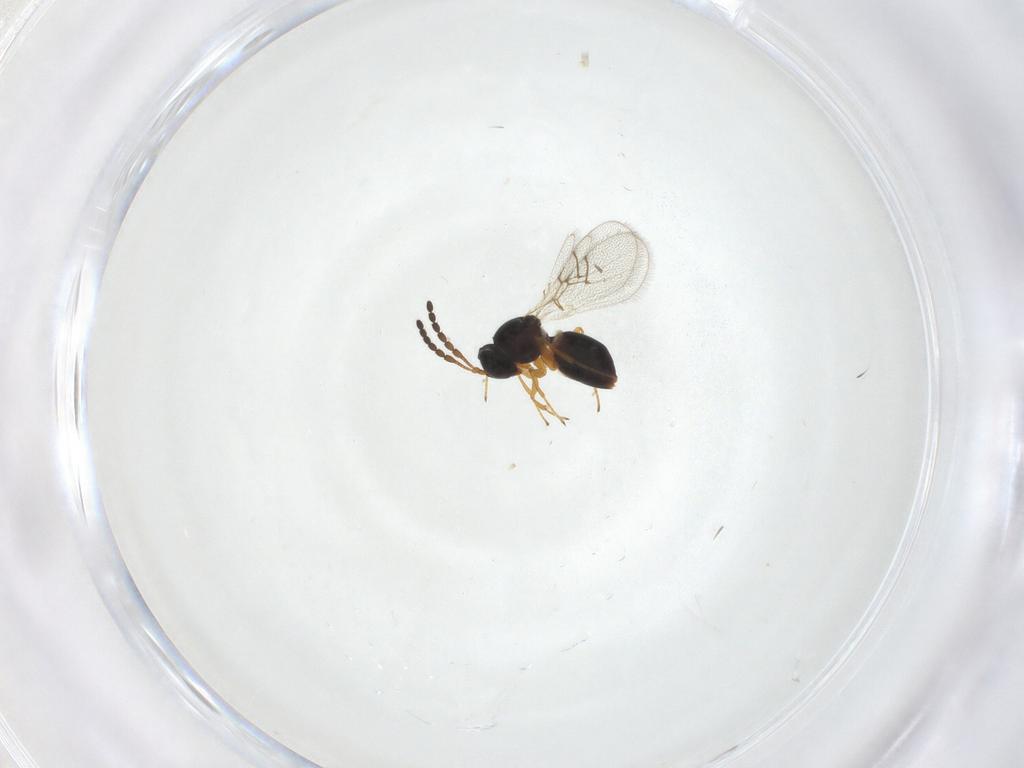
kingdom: Animalia
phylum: Arthropoda
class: Insecta
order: Hymenoptera
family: Figitidae
